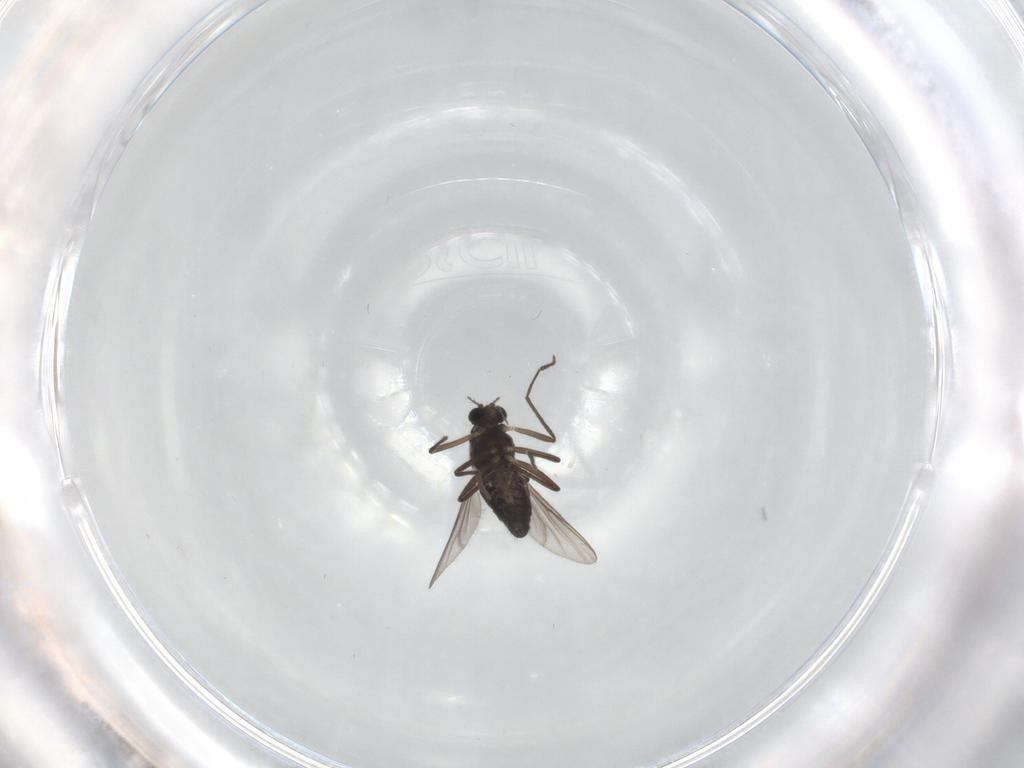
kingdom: Animalia
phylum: Arthropoda
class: Insecta
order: Diptera
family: Chironomidae
